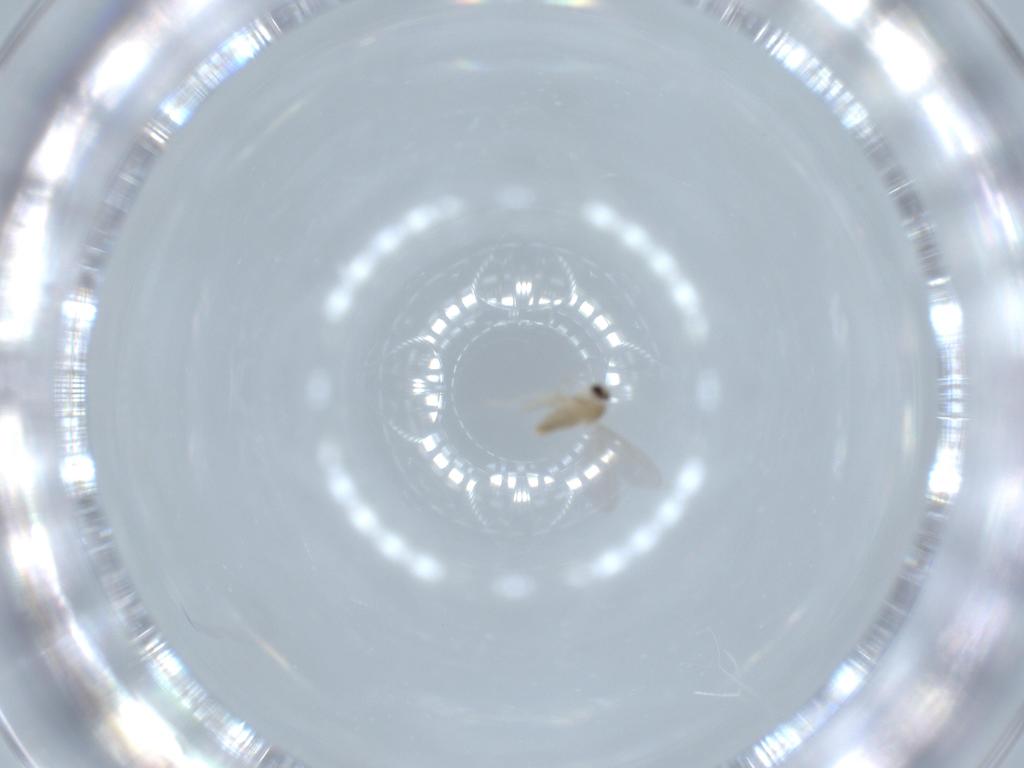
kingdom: Animalia
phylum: Arthropoda
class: Insecta
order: Diptera
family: Cecidomyiidae
